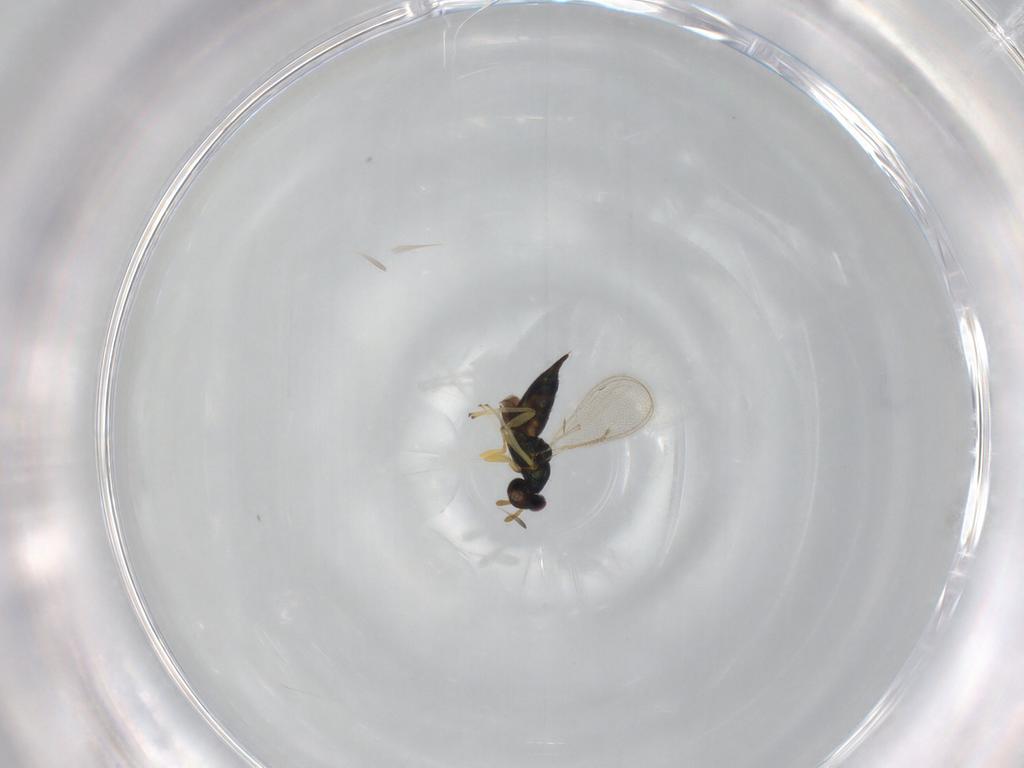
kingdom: Animalia
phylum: Arthropoda
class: Insecta
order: Hymenoptera
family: Eulophidae
